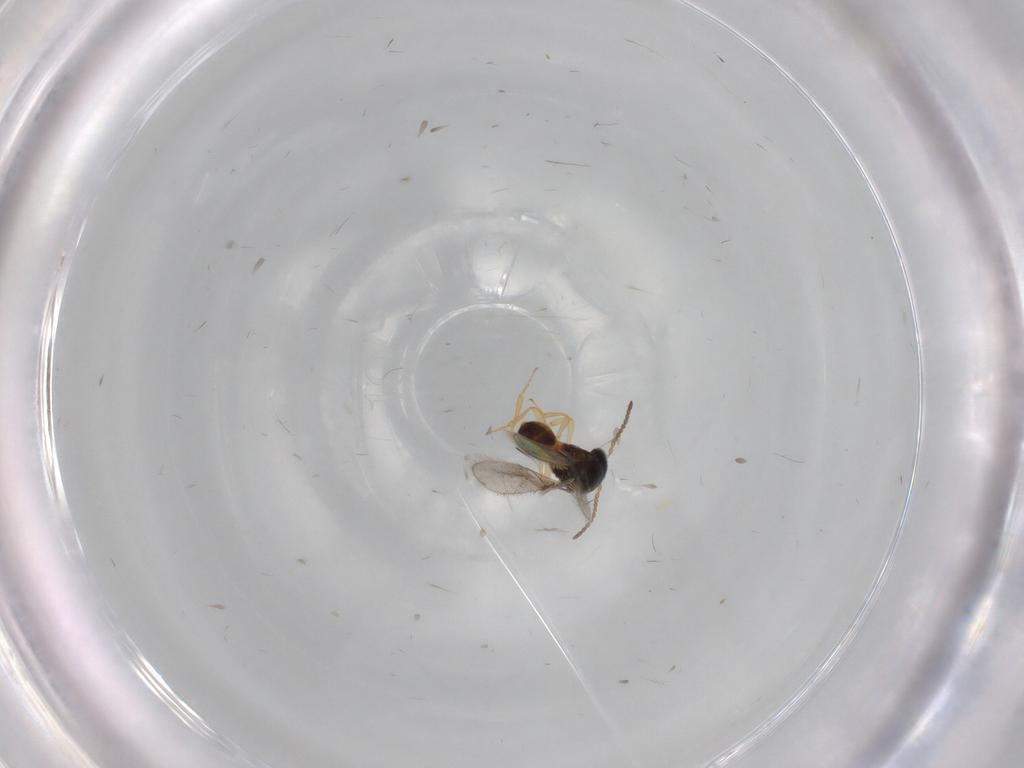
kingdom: Animalia
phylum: Arthropoda
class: Insecta
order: Hymenoptera
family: Scelionidae
